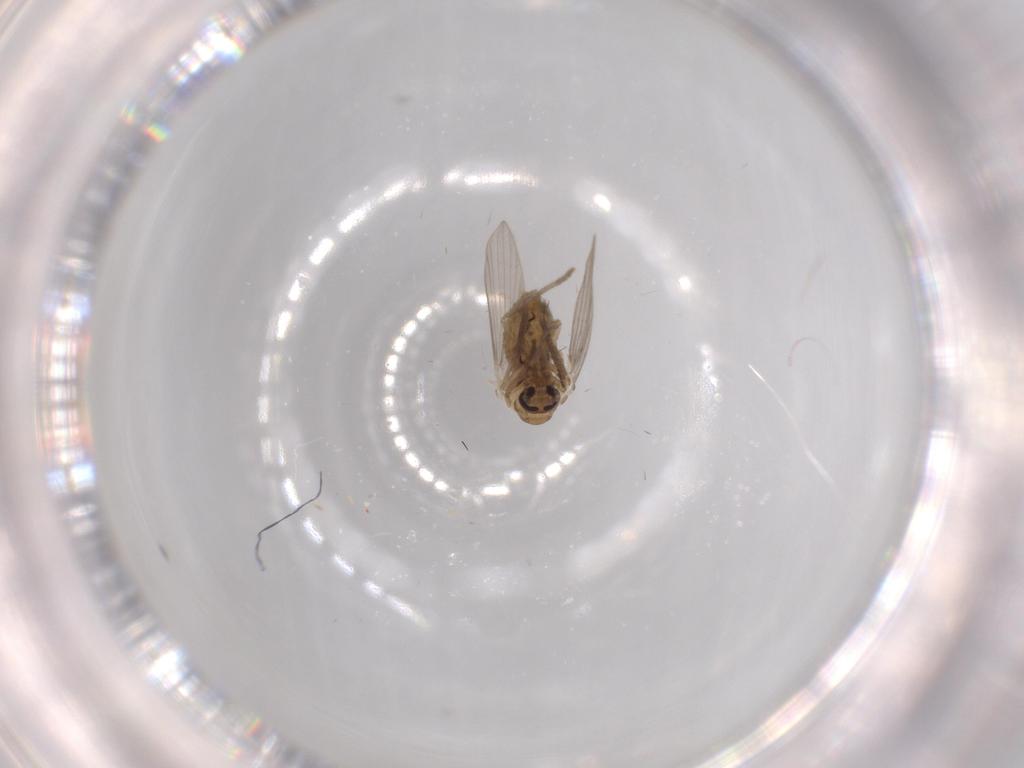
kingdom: Animalia
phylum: Arthropoda
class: Insecta
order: Diptera
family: Psychodidae
